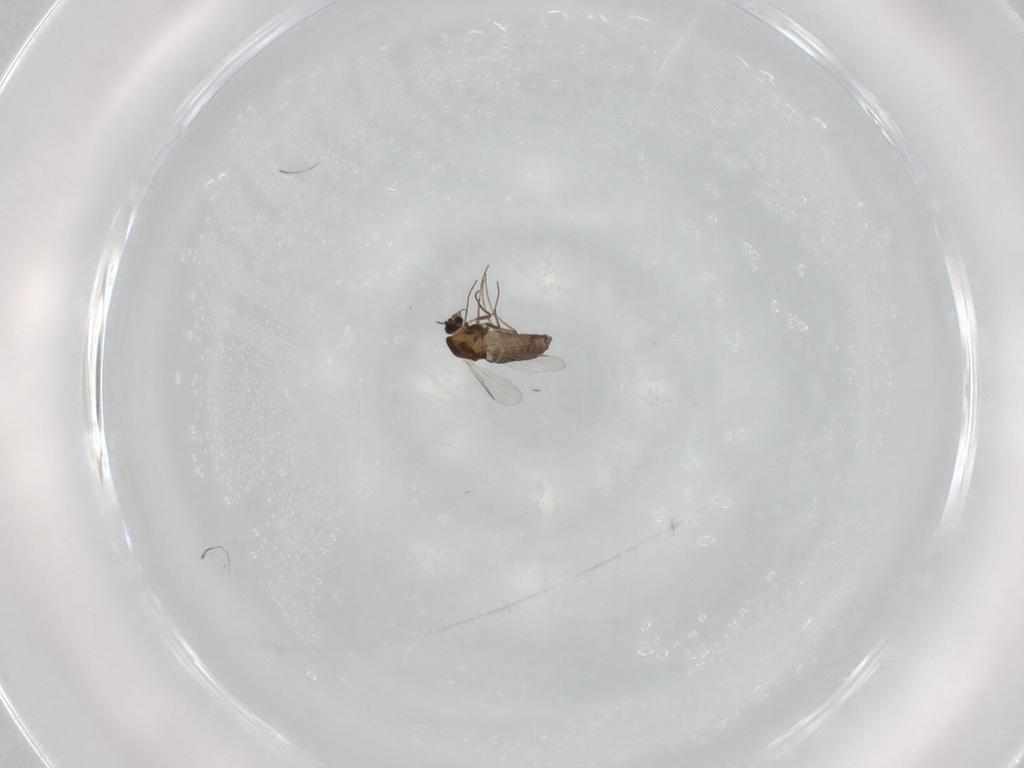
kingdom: Animalia
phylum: Arthropoda
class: Insecta
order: Diptera
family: Chironomidae
